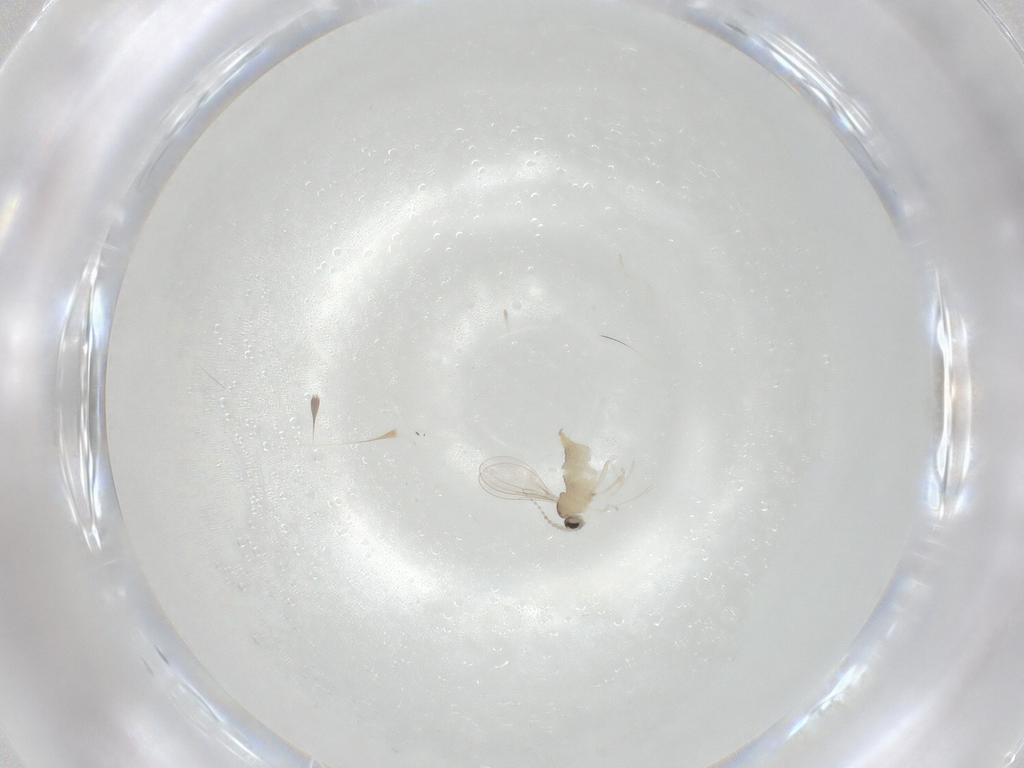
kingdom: Animalia
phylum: Arthropoda
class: Insecta
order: Diptera
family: Cecidomyiidae
